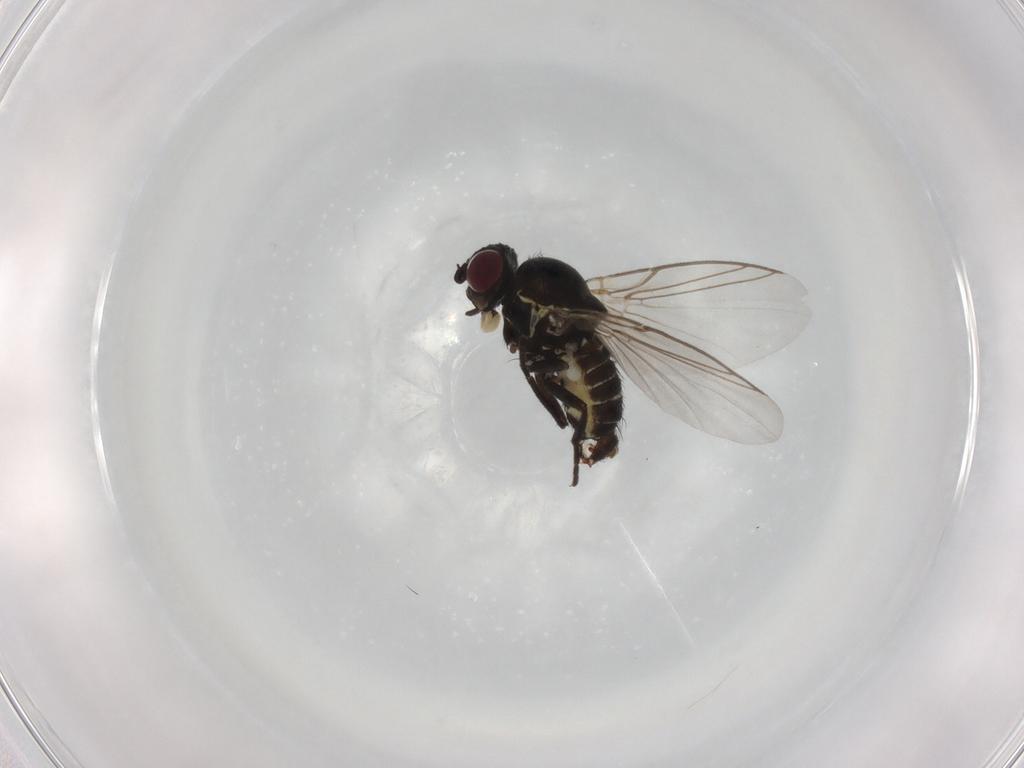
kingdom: Animalia
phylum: Arthropoda
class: Insecta
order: Diptera
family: Agromyzidae
